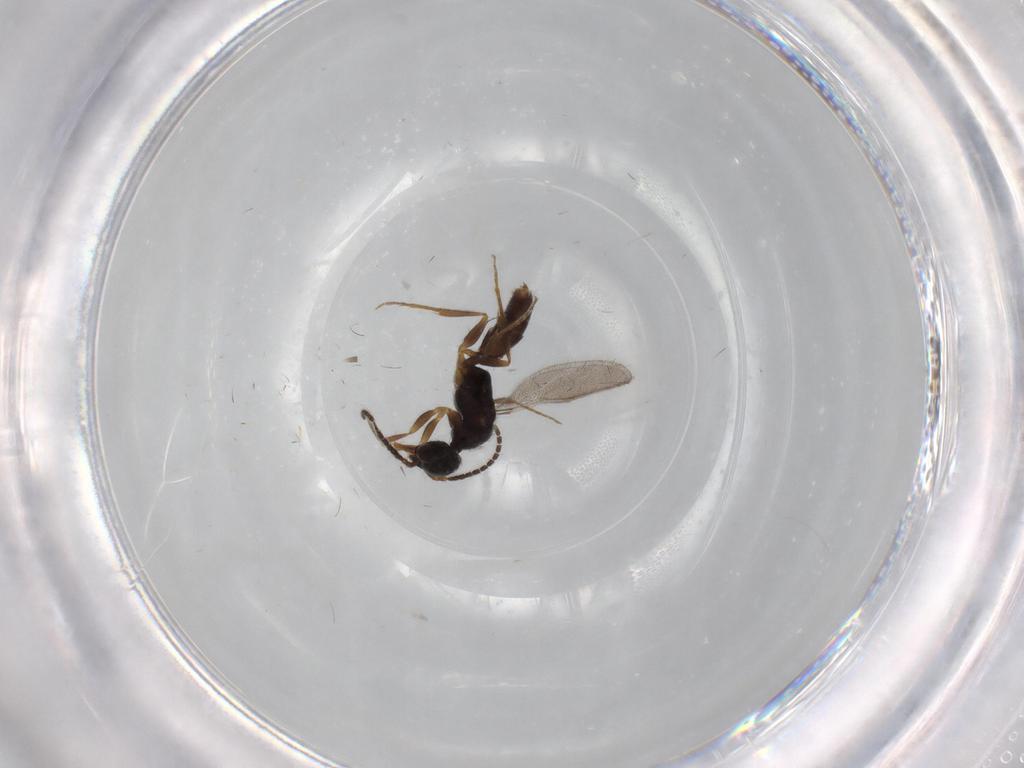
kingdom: Animalia
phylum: Arthropoda
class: Insecta
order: Hymenoptera
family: Bethylidae
